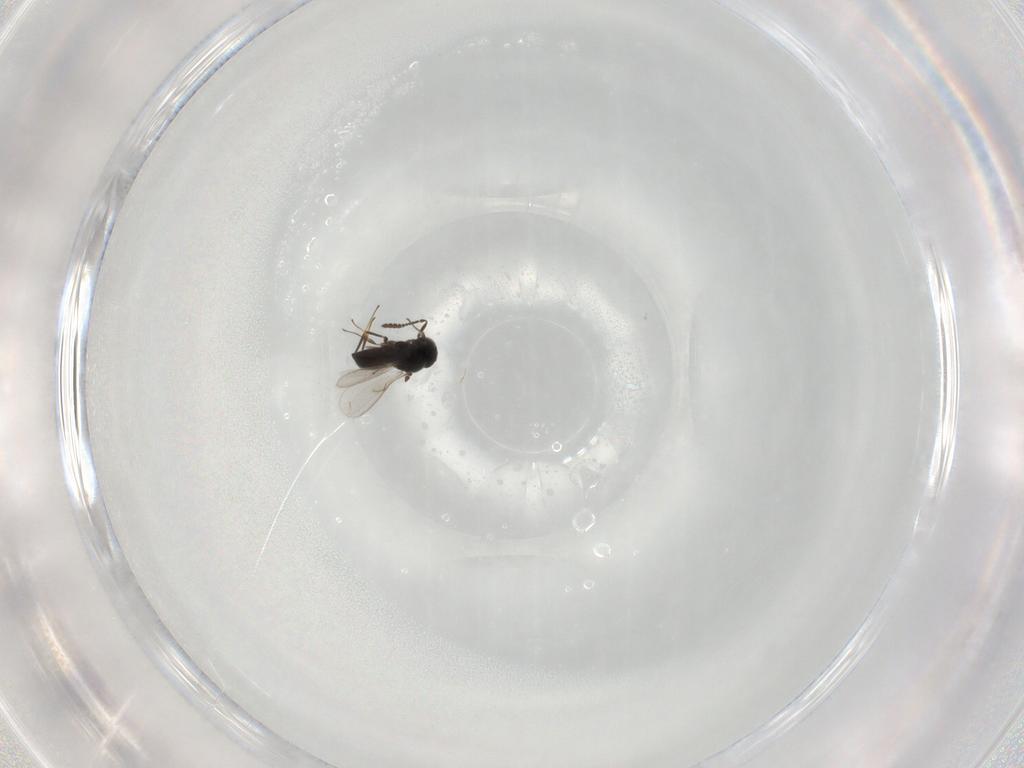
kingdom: Animalia
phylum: Arthropoda
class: Insecta
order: Hymenoptera
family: Scelionidae
